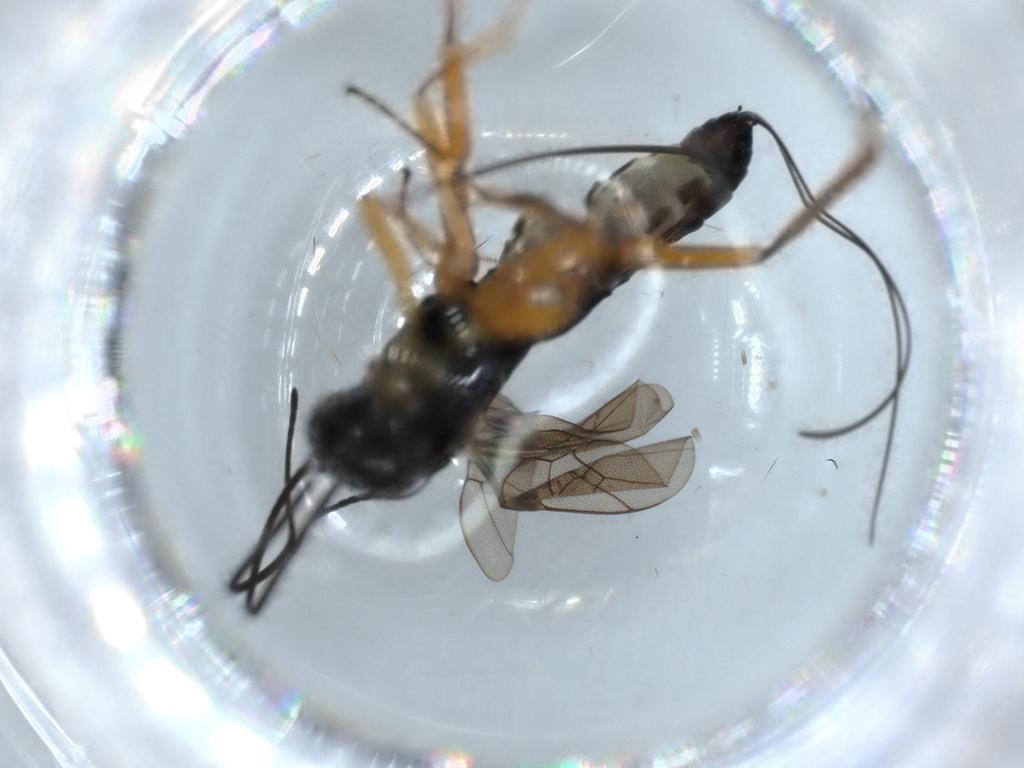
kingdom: Animalia
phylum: Arthropoda
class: Insecta
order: Hymenoptera
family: Ichneumonidae
